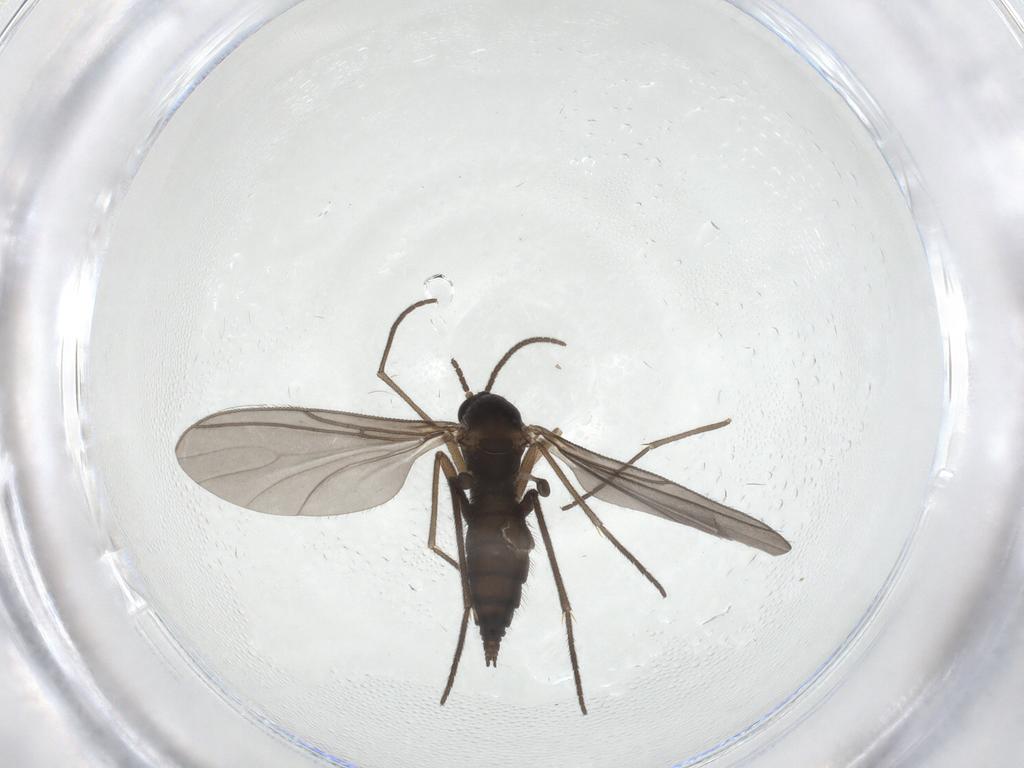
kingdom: Animalia
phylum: Arthropoda
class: Insecta
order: Diptera
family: Sciaridae
